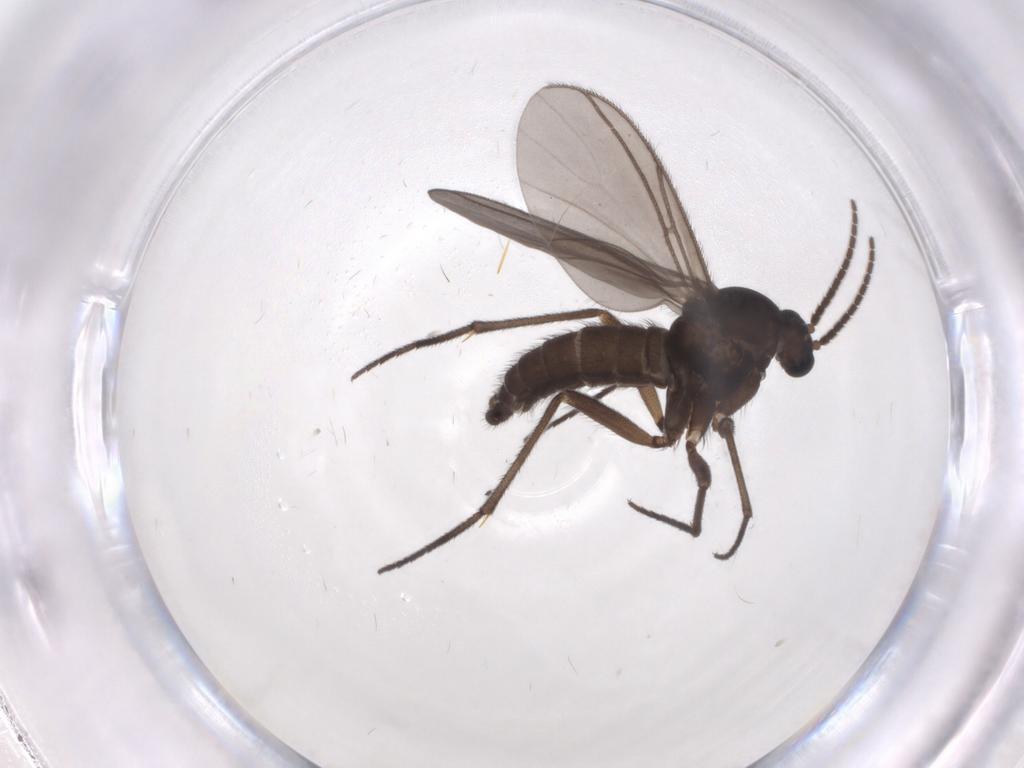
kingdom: Animalia
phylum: Arthropoda
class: Insecta
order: Diptera
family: Sciaridae
